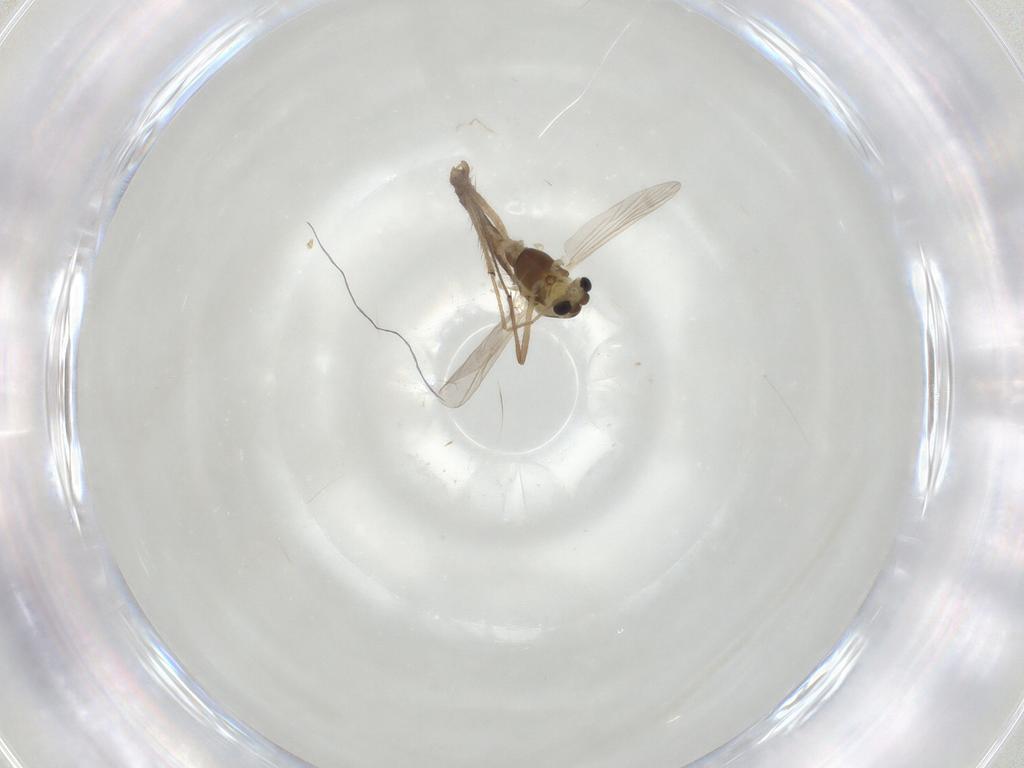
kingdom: Animalia
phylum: Arthropoda
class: Insecta
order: Diptera
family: Chironomidae
